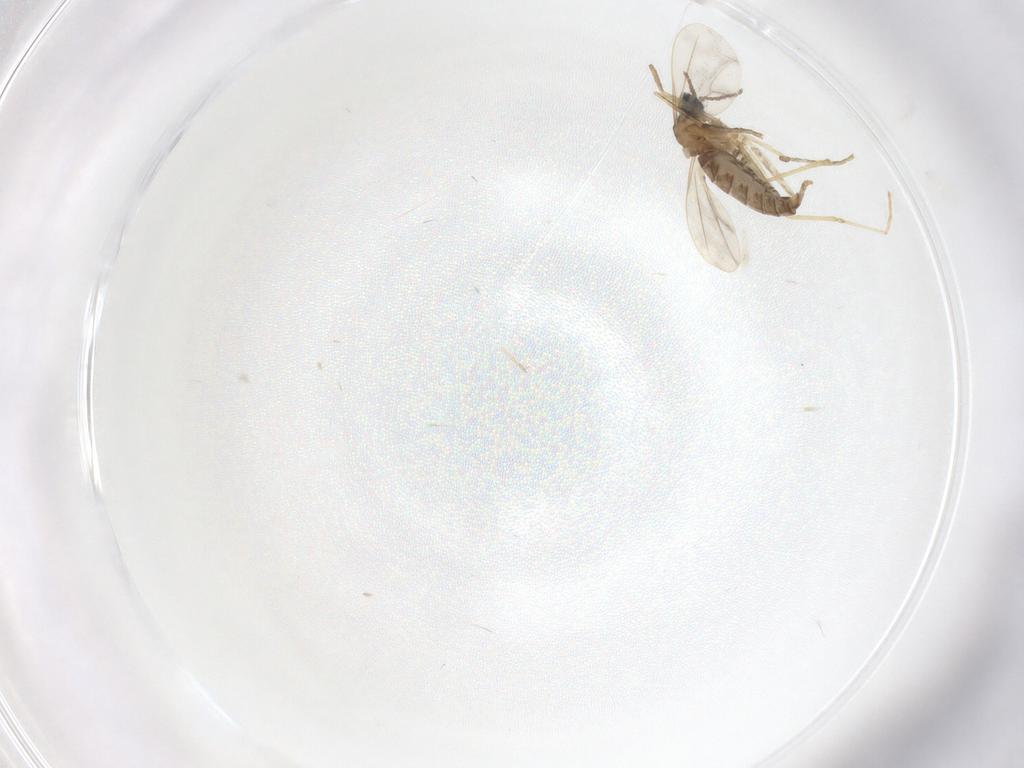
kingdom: Animalia
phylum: Arthropoda
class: Insecta
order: Diptera
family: Cecidomyiidae
